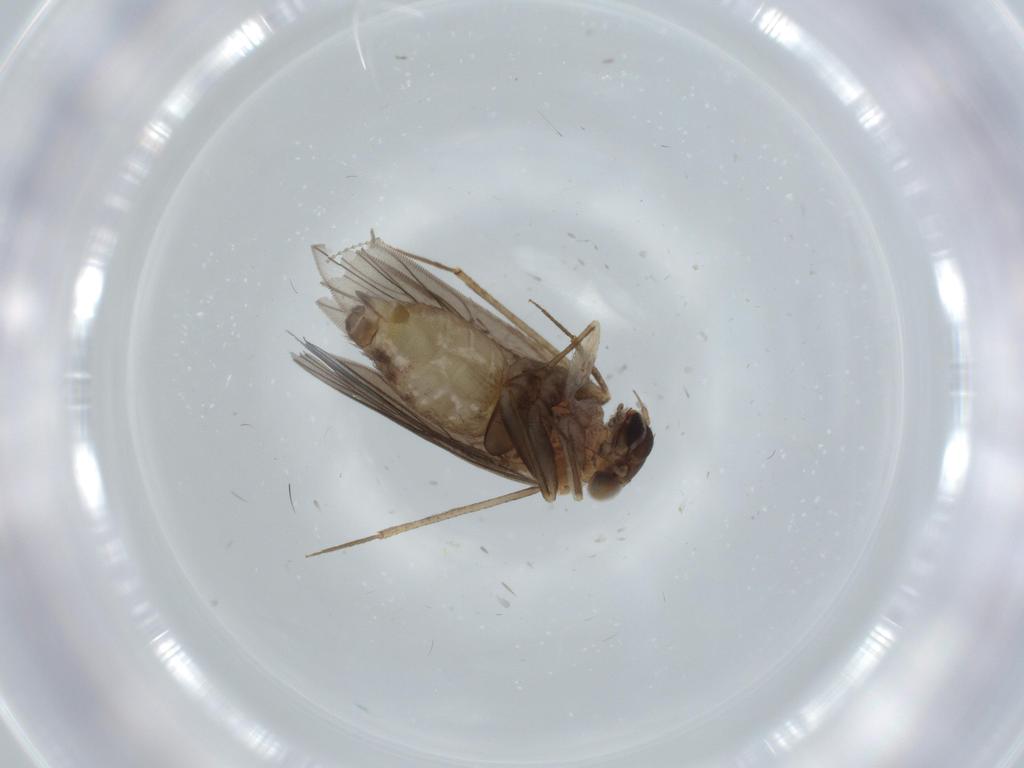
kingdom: Animalia
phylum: Arthropoda
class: Insecta
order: Psocodea
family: Lepidopsocidae
